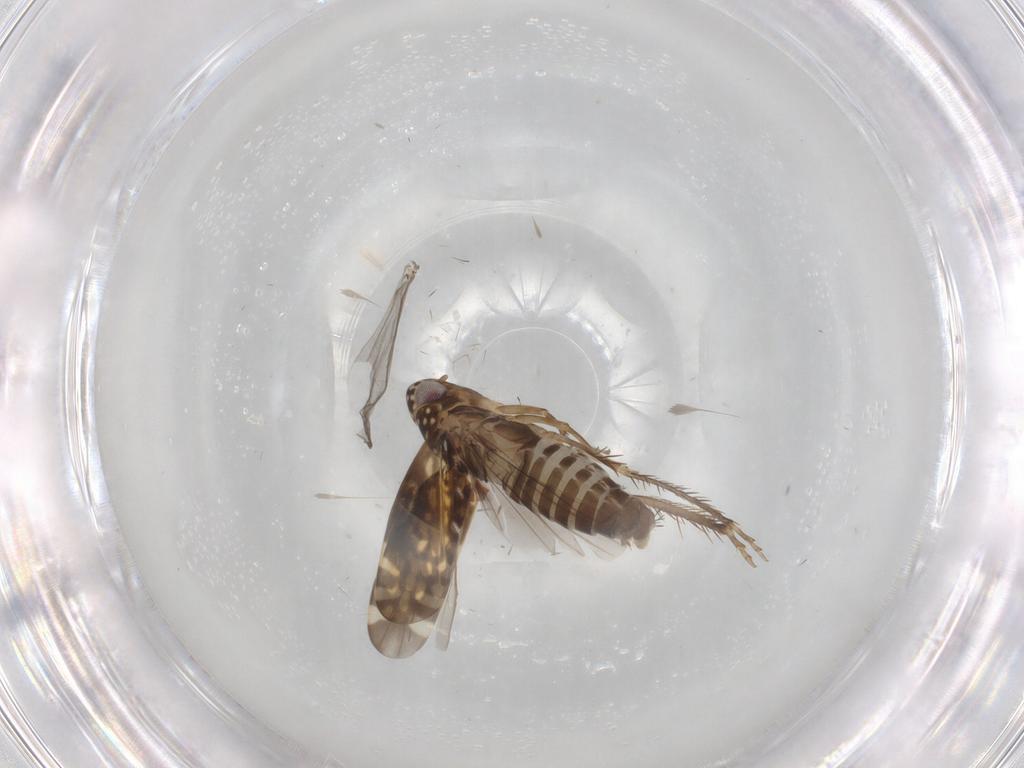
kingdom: Animalia
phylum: Arthropoda
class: Insecta
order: Hemiptera
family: Cicadellidae
